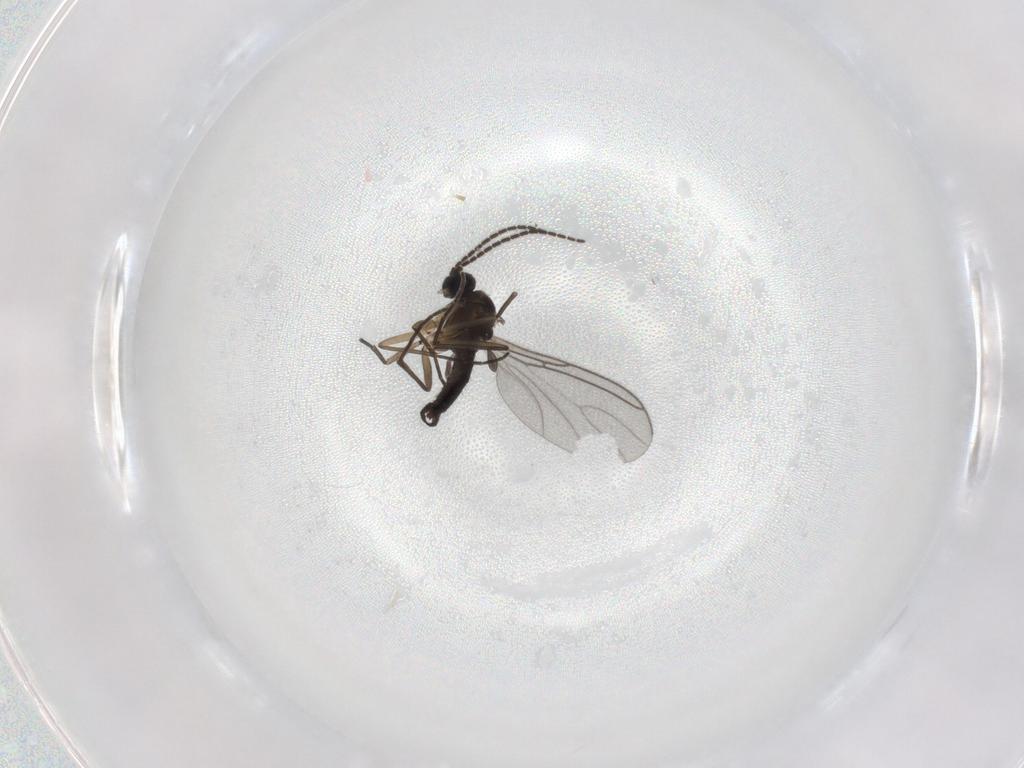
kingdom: Animalia
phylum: Arthropoda
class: Insecta
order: Diptera
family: Sciaridae
